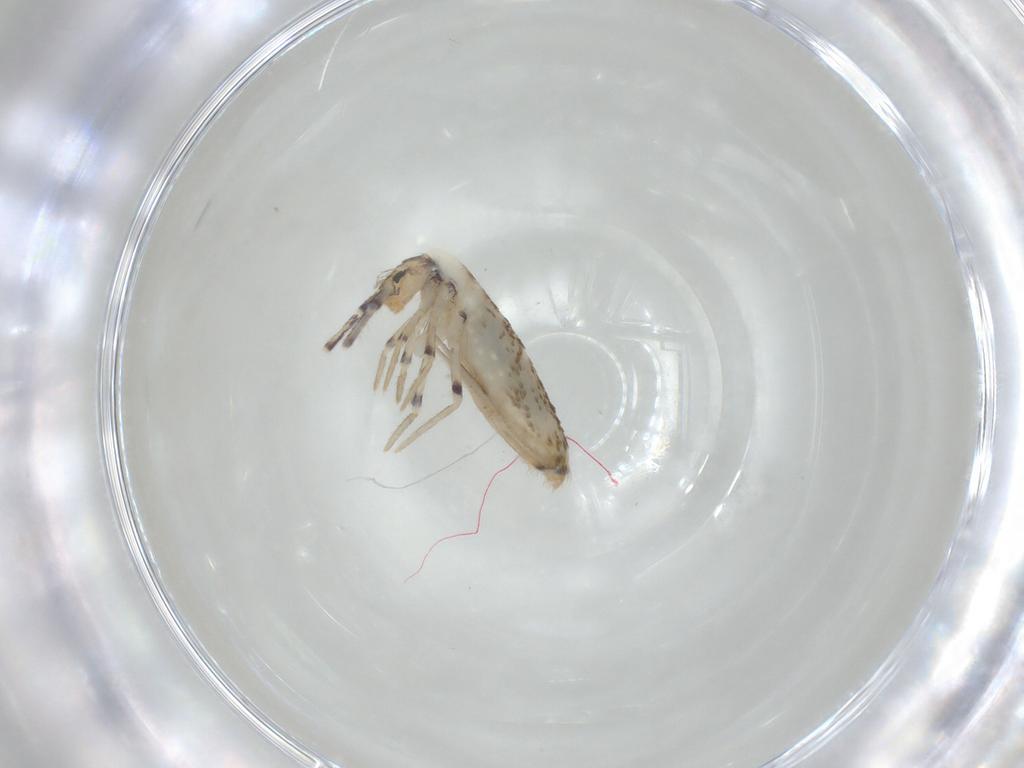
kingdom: Animalia
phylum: Arthropoda
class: Collembola
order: Entomobryomorpha
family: Entomobryidae
